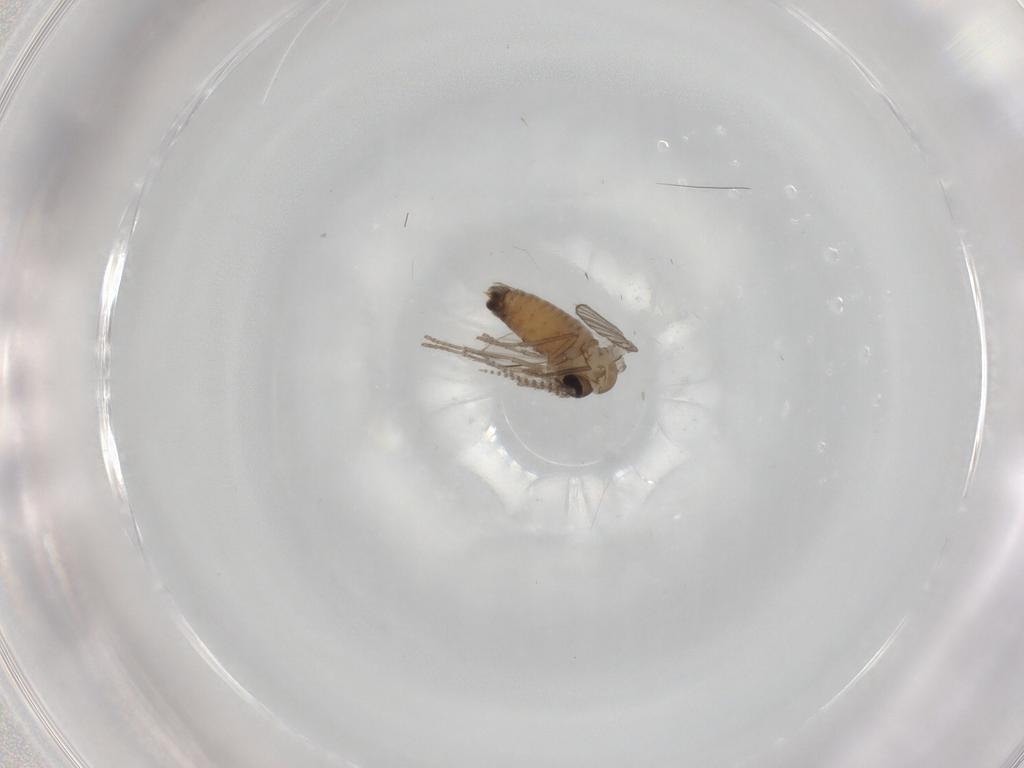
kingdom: Animalia
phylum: Arthropoda
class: Insecta
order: Diptera
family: Psychodidae
